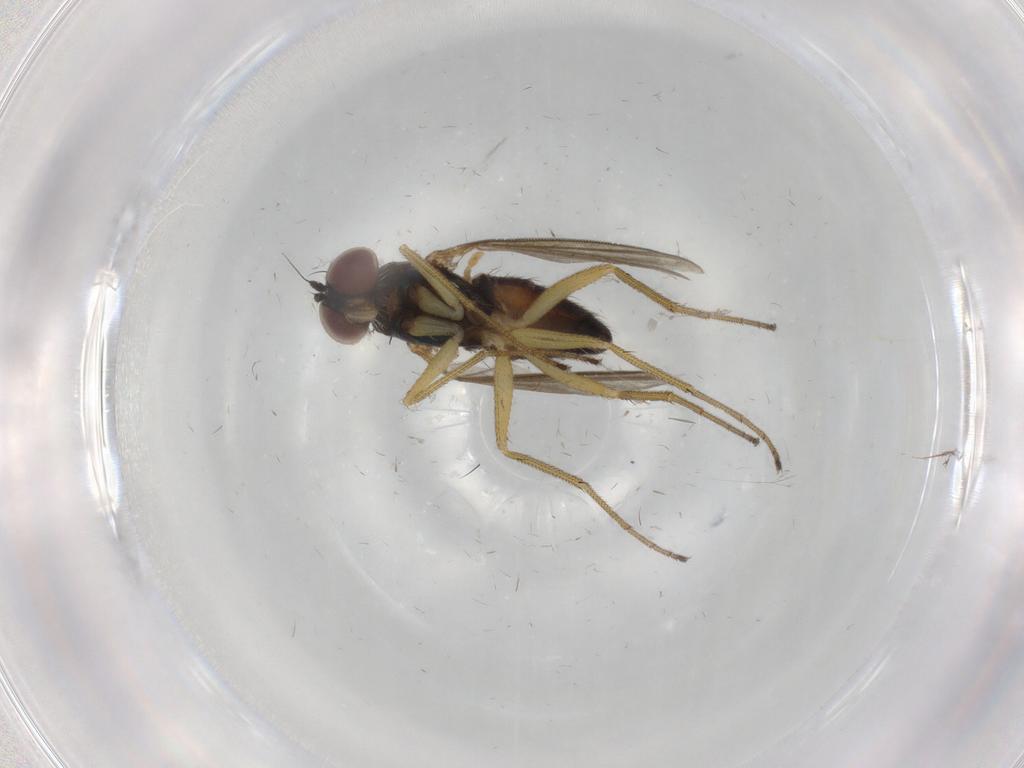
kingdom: Animalia
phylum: Arthropoda
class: Insecta
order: Diptera
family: Dolichopodidae
